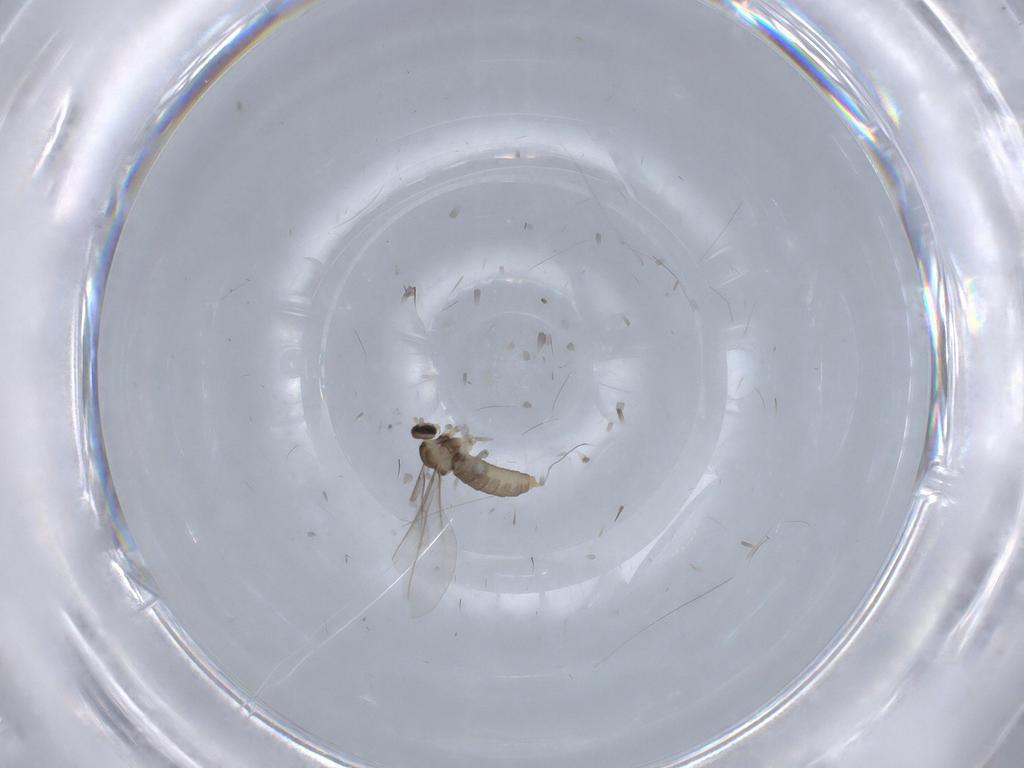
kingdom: Animalia
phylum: Arthropoda
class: Insecta
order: Diptera
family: Cecidomyiidae
